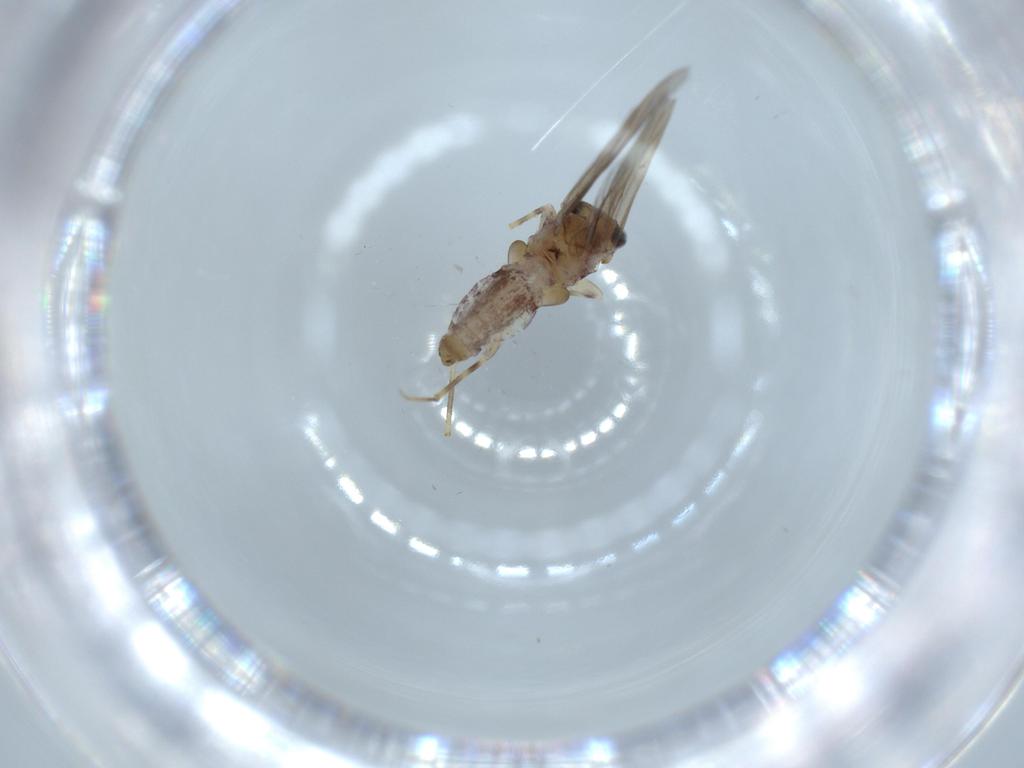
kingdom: Animalia
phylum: Arthropoda
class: Insecta
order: Psocodea
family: Lepidopsocidae
